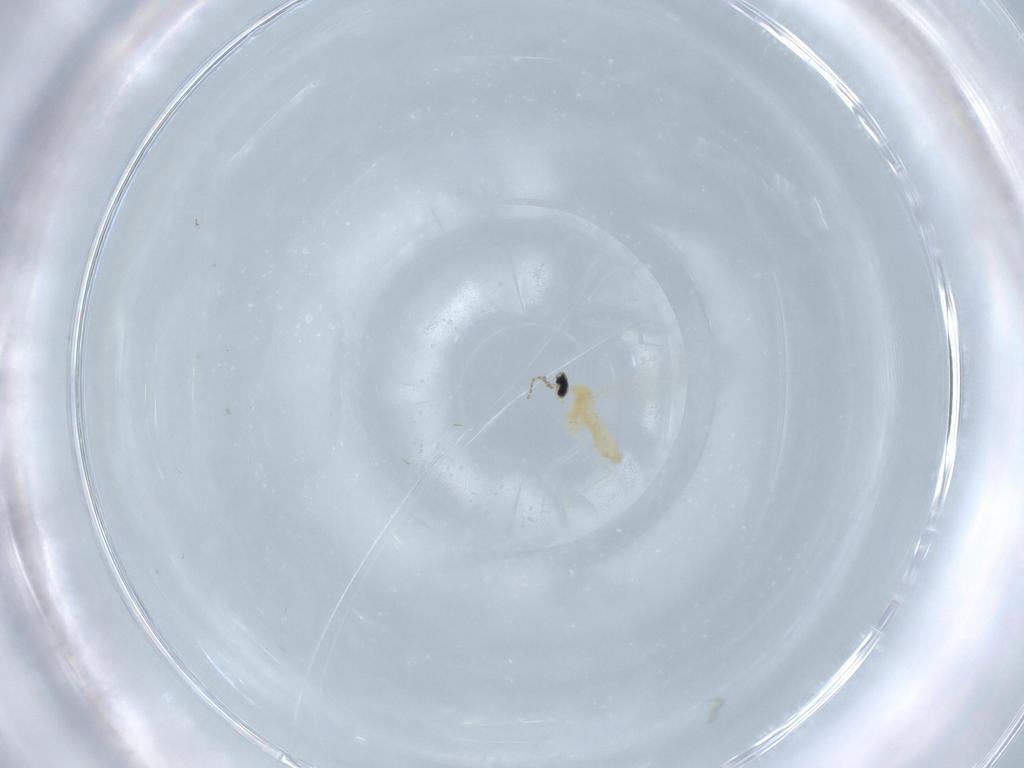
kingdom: Animalia
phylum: Arthropoda
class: Insecta
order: Diptera
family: Cecidomyiidae
